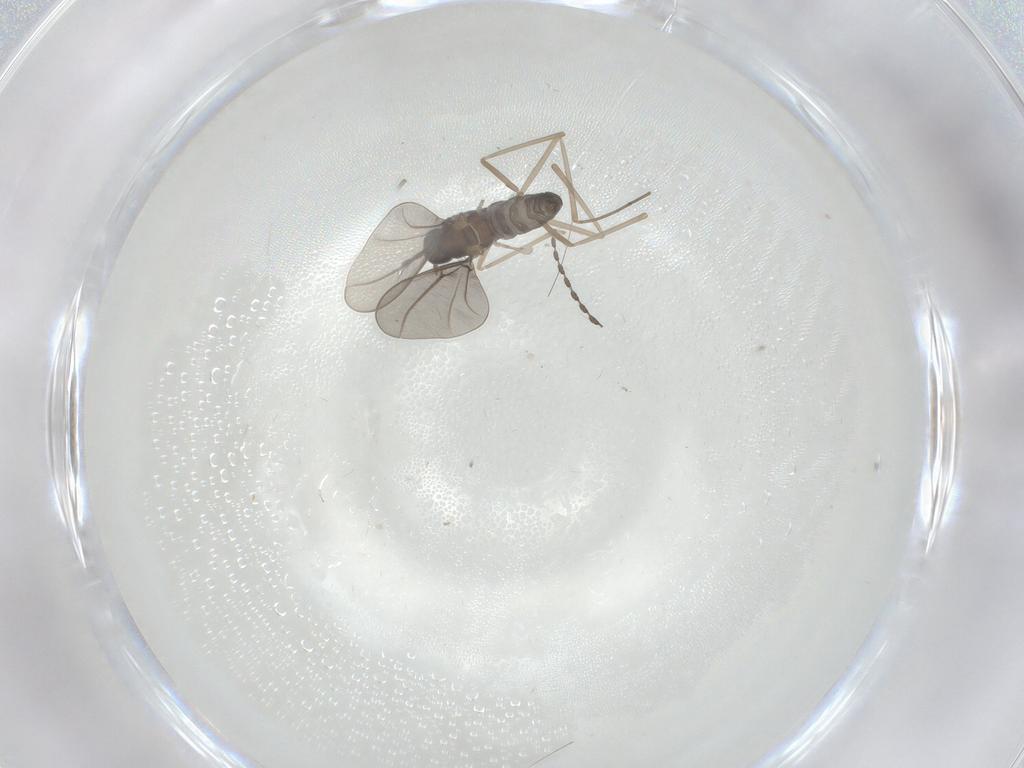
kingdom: Animalia
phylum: Arthropoda
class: Insecta
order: Diptera
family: Cecidomyiidae
